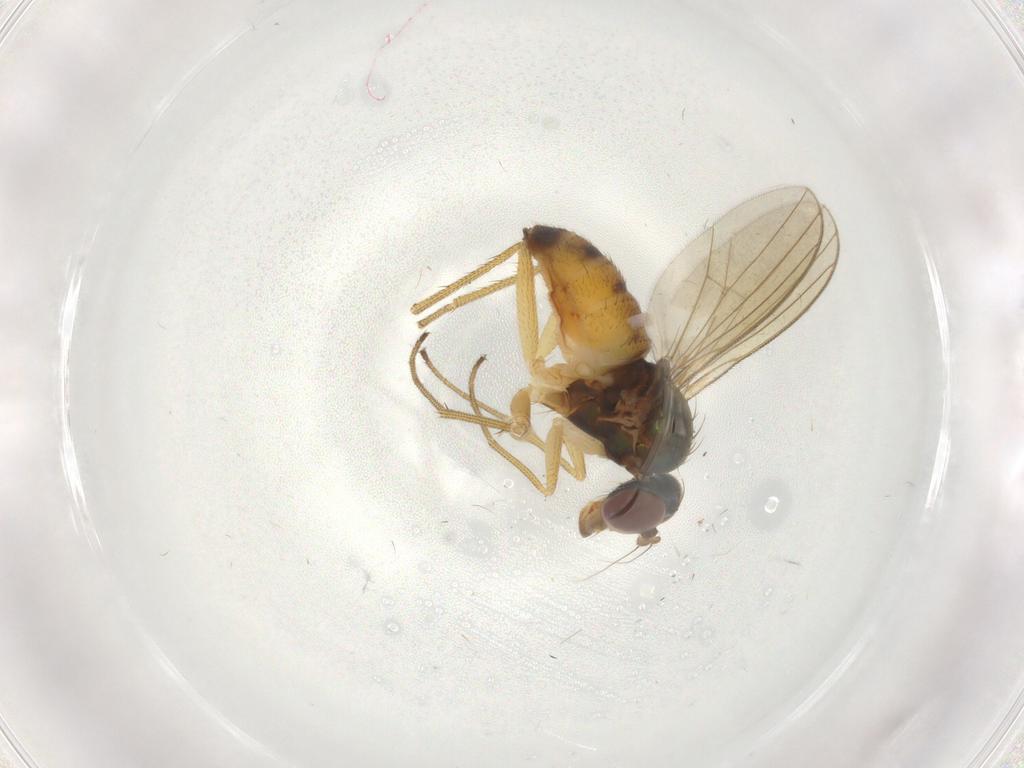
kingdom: Animalia
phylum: Arthropoda
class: Insecta
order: Diptera
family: Dolichopodidae
